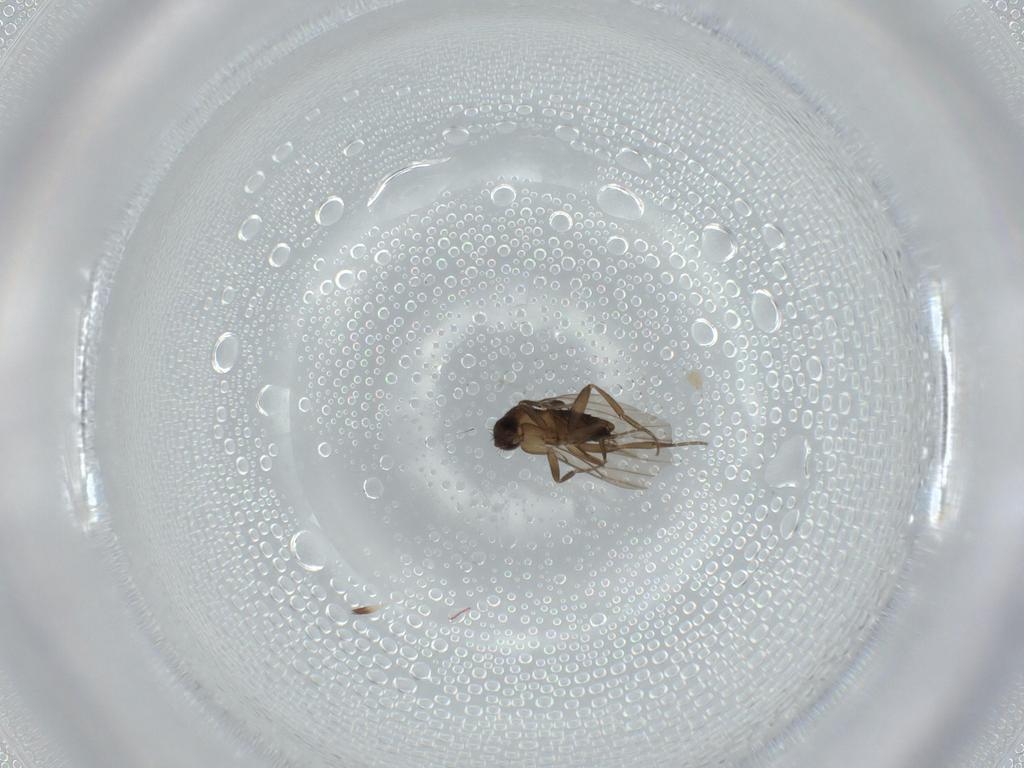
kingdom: Animalia
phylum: Arthropoda
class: Insecta
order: Diptera
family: Phoridae
